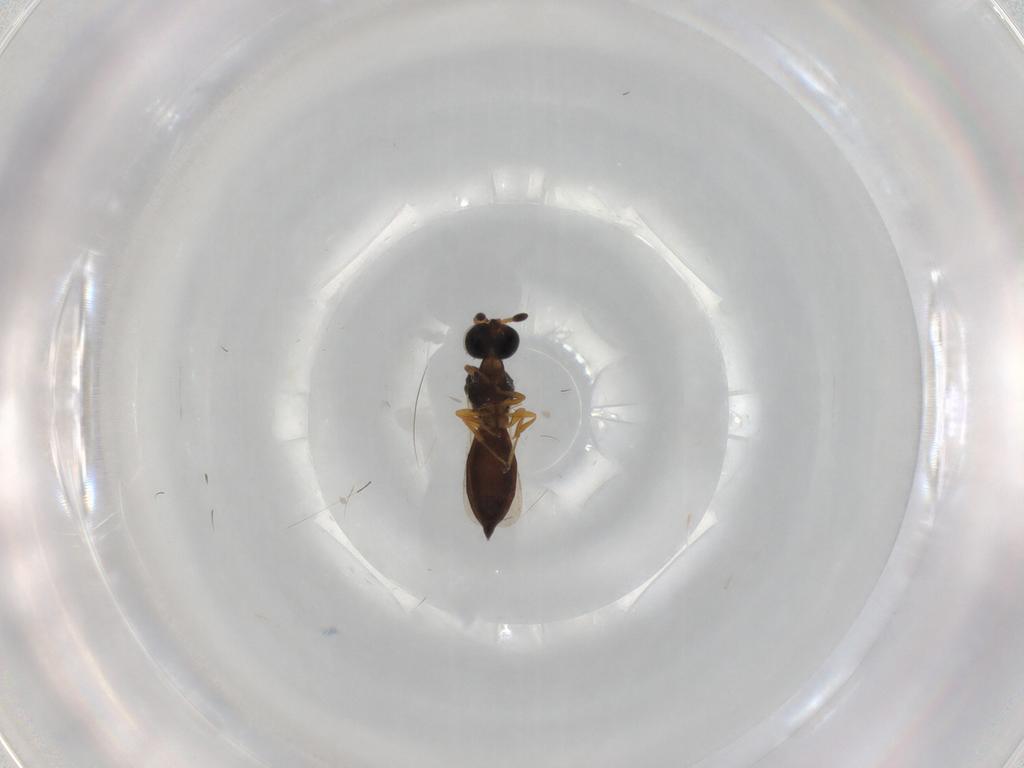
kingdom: Animalia
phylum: Arthropoda
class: Insecta
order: Hymenoptera
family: Scelionidae
